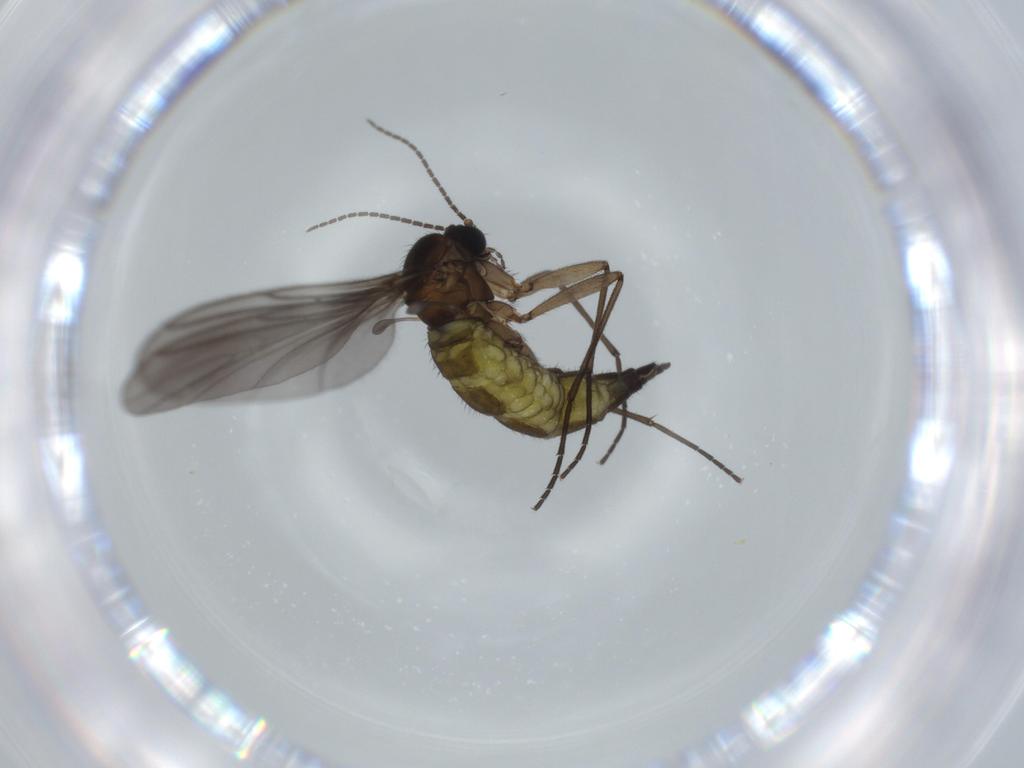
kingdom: Animalia
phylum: Arthropoda
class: Insecta
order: Diptera
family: Sciaridae
